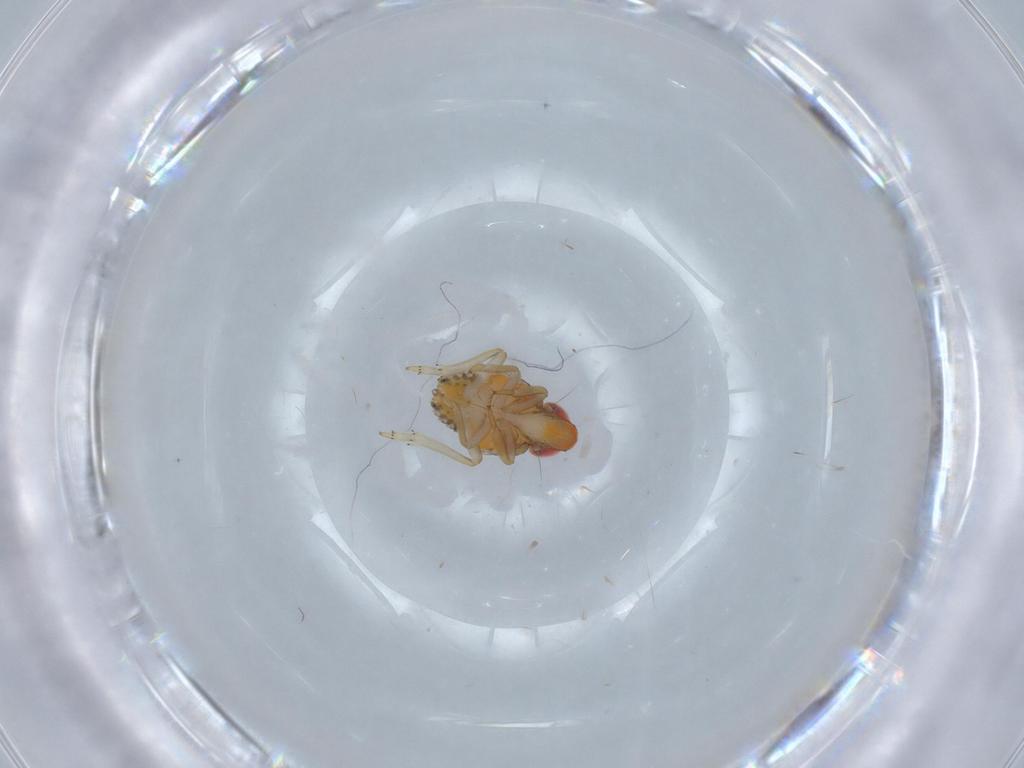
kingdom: Animalia
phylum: Arthropoda
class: Insecta
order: Hemiptera
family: Fulgoroidea_incertae_sedis
